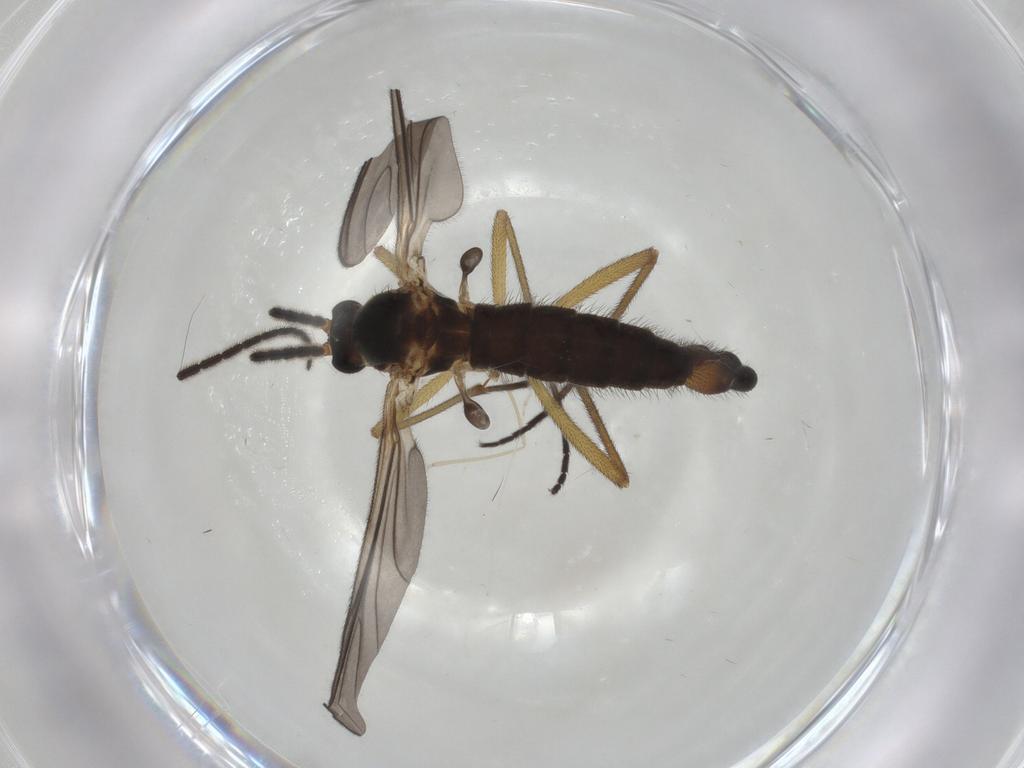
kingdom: Animalia
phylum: Arthropoda
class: Insecta
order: Diptera
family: Sciaridae
